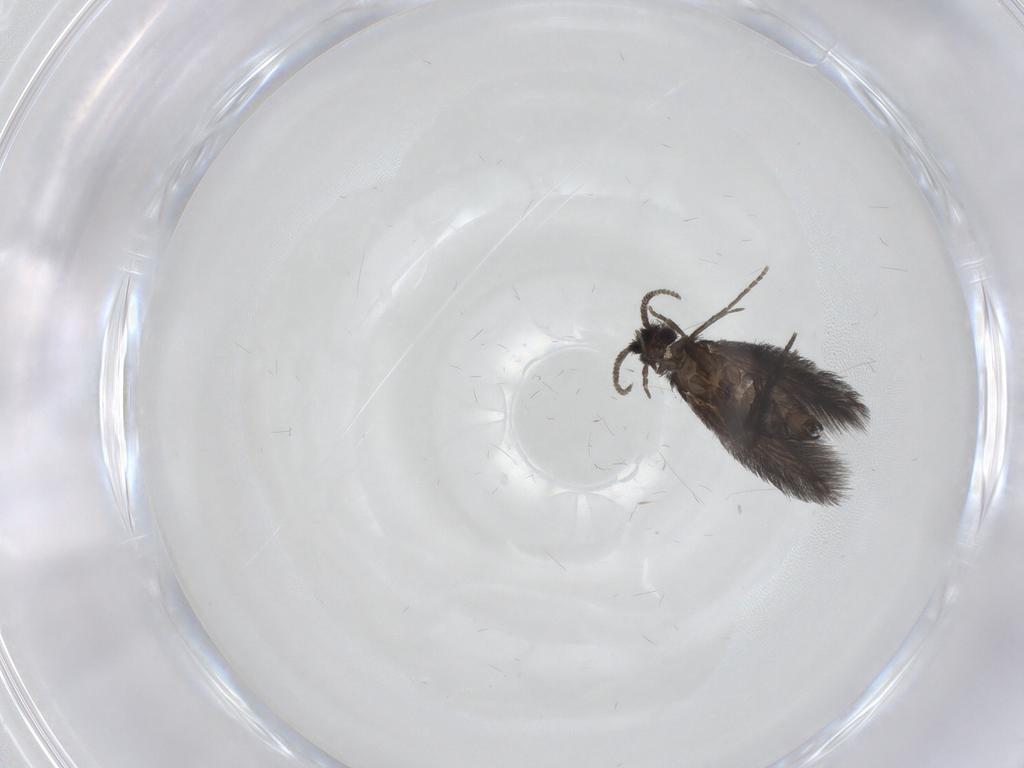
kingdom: Animalia
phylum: Arthropoda
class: Insecta
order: Trichoptera
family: Hydroptilidae
